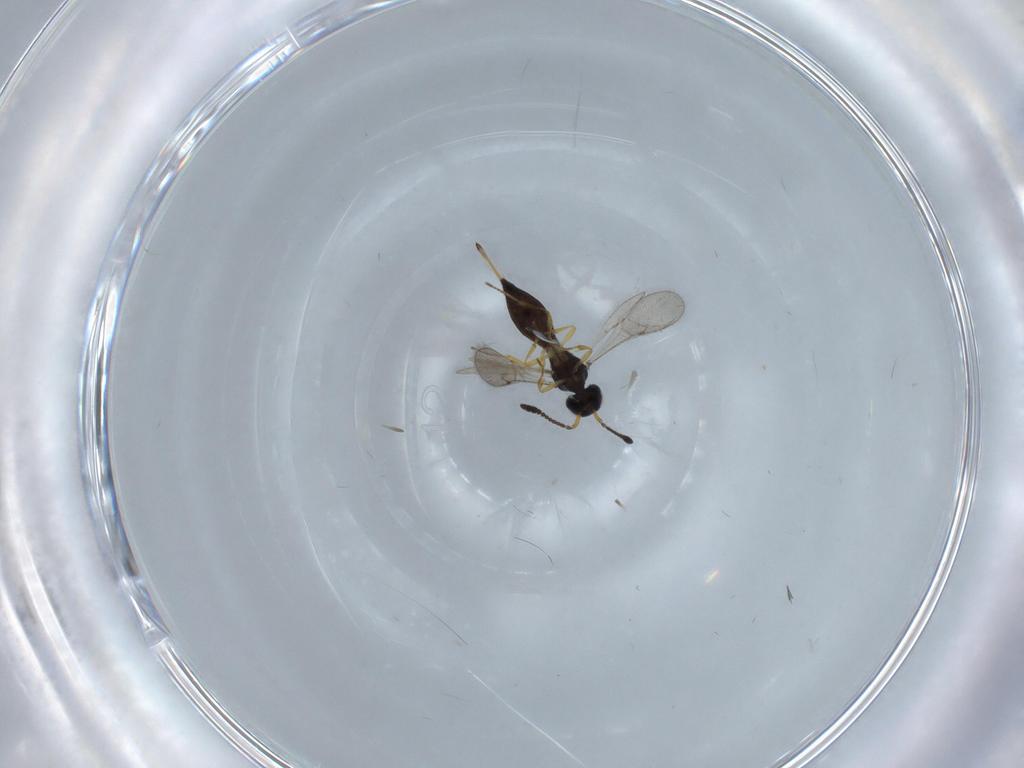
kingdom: Animalia
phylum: Arthropoda
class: Insecta
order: Hymenoptera
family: Scelionidae
